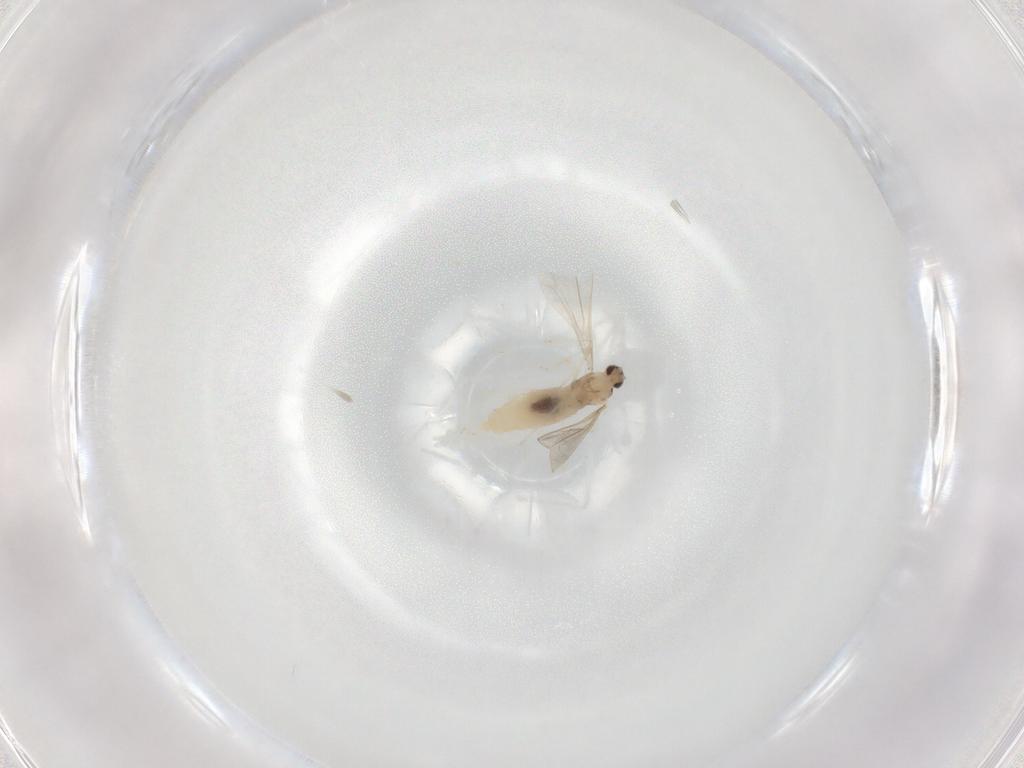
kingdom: Animalia
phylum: Arthropoda
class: Insecta
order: Diptera
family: Cecidomyiidae
